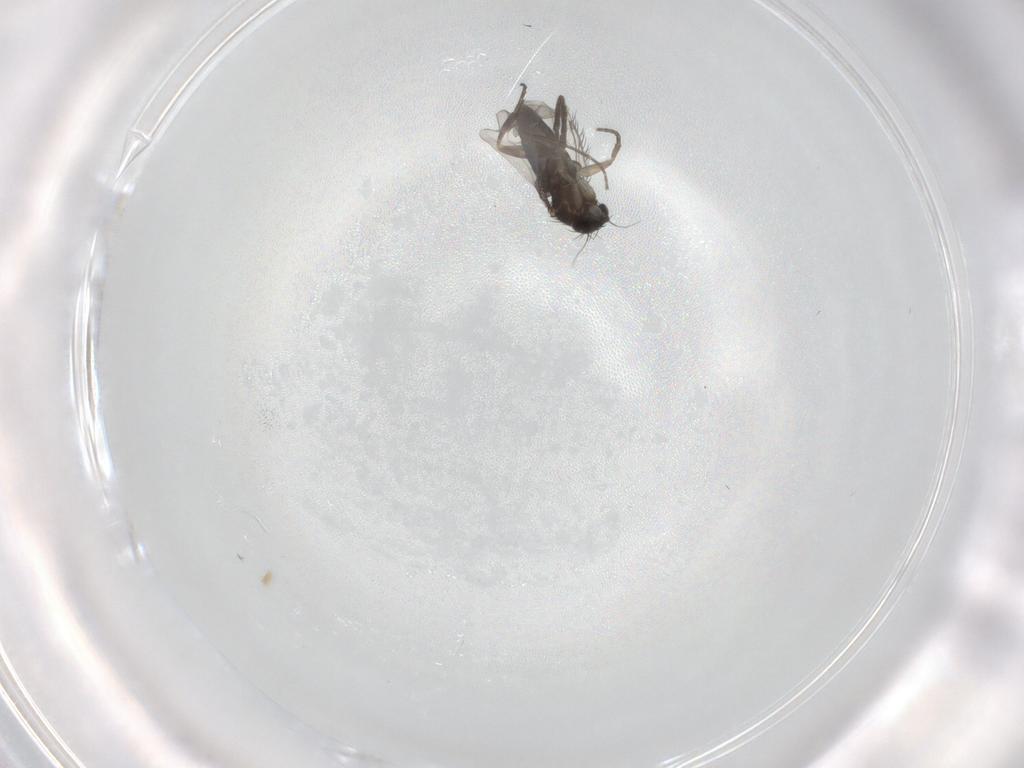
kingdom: Animalia
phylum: Arthropoda
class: Insecta
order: Diptera
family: Phoridae
